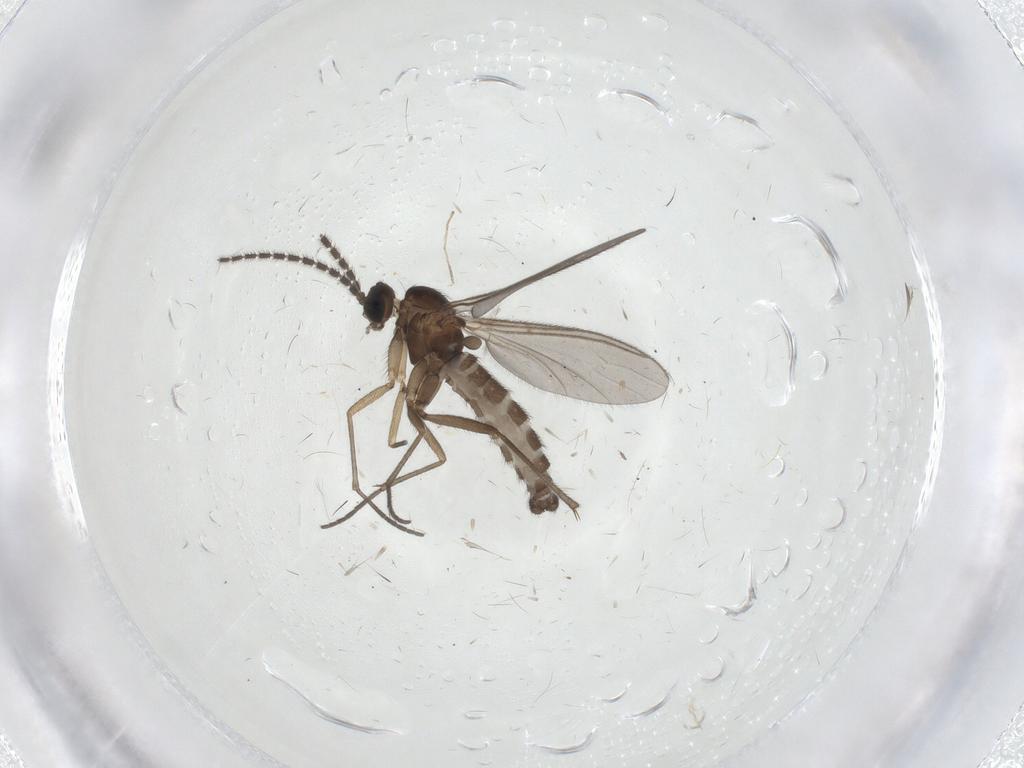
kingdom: Animalia
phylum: Arthropoda
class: Insecta
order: Diptera
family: Sciaridae
